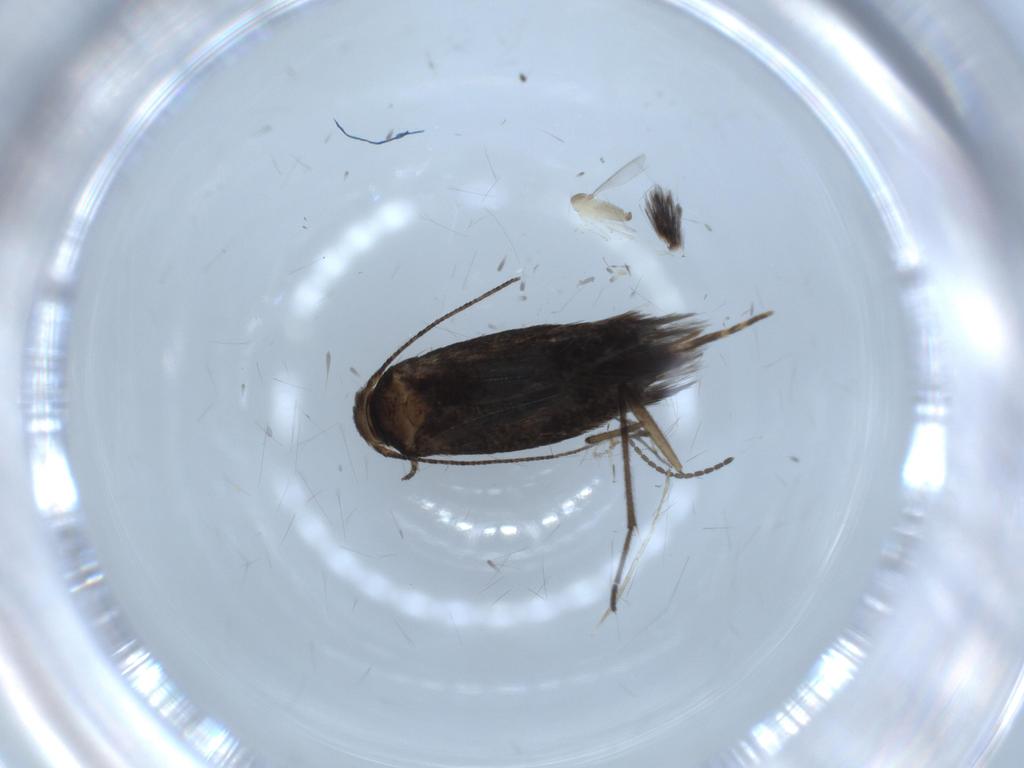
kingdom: Animalia
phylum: Arthropoda
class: Insecta
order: Lepidoptera
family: Gelechiidae
